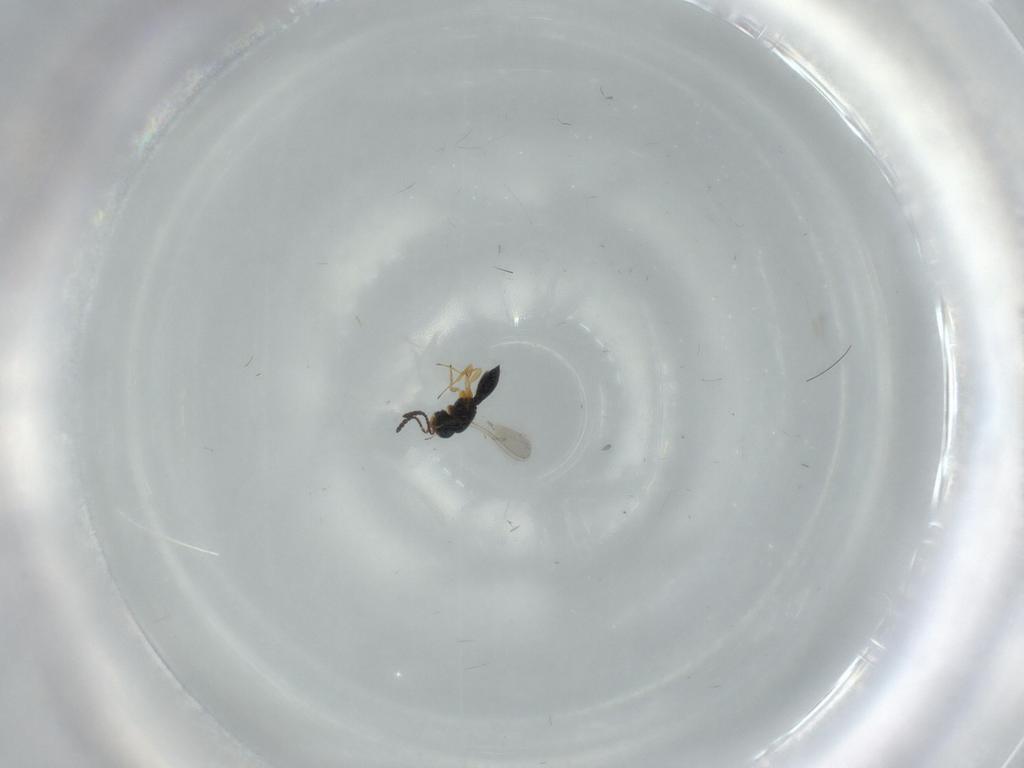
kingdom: Animalia
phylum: Arthropoda
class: Insecta
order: Hymenoptera
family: Scelionidae
